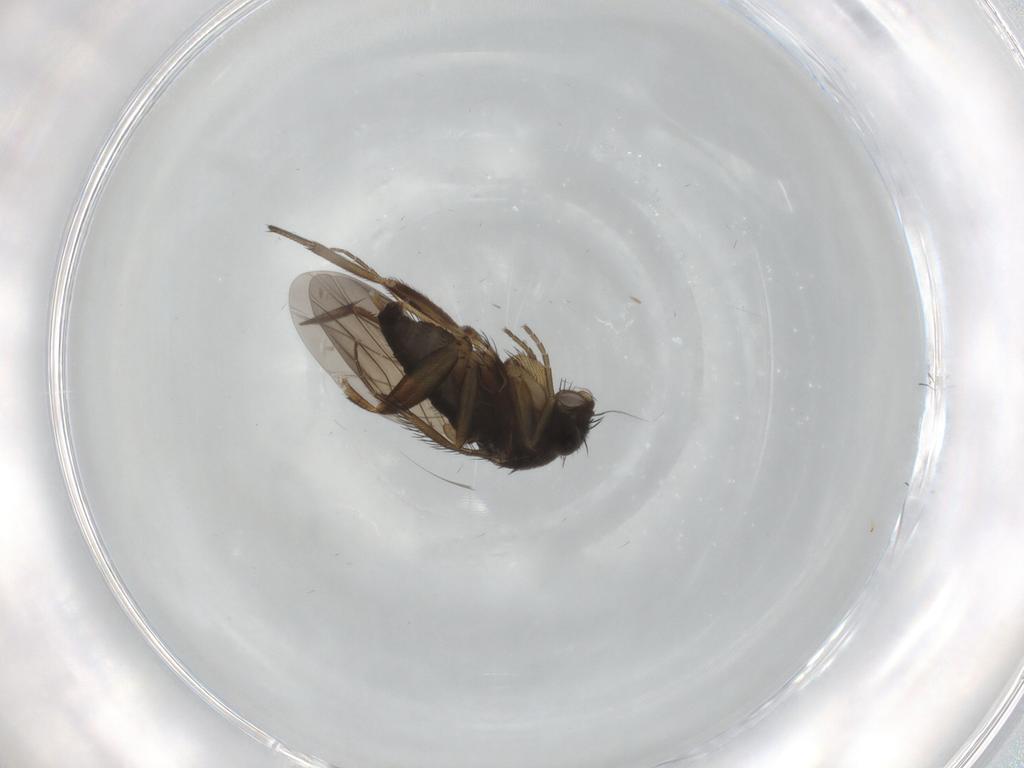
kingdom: Animalia
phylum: Arthropoda
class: Insecta
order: Diptera
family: Phoridae
